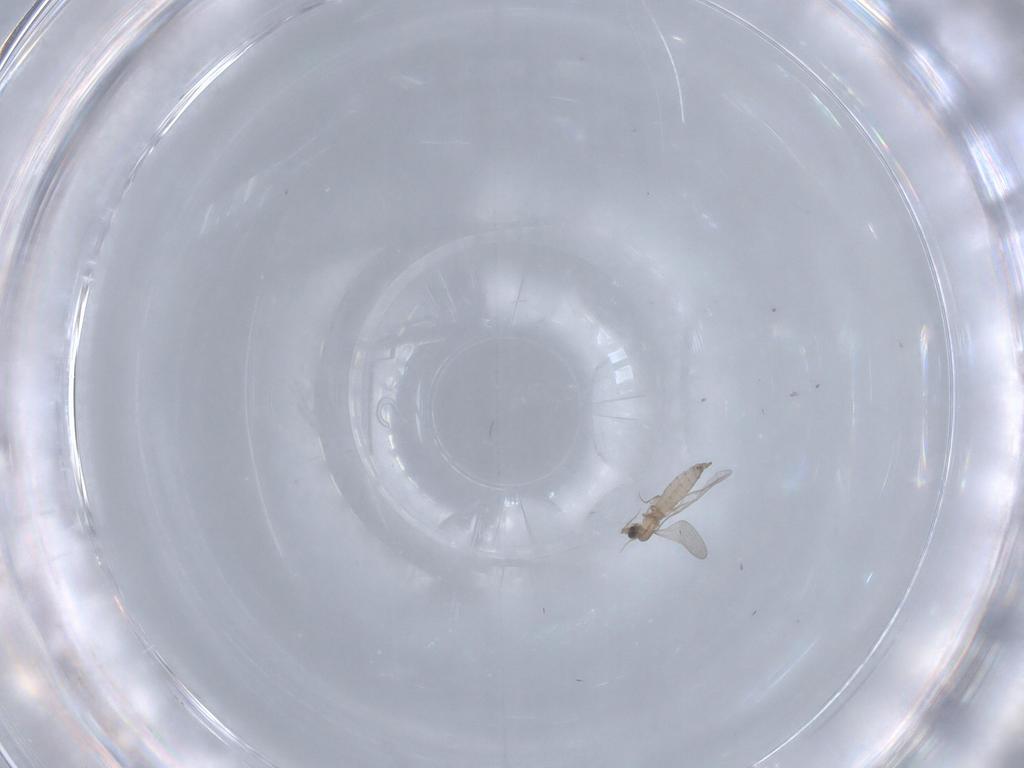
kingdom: Animalia
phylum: Arthropoda
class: Insecta
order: Diptera
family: Cecidomyiidae
